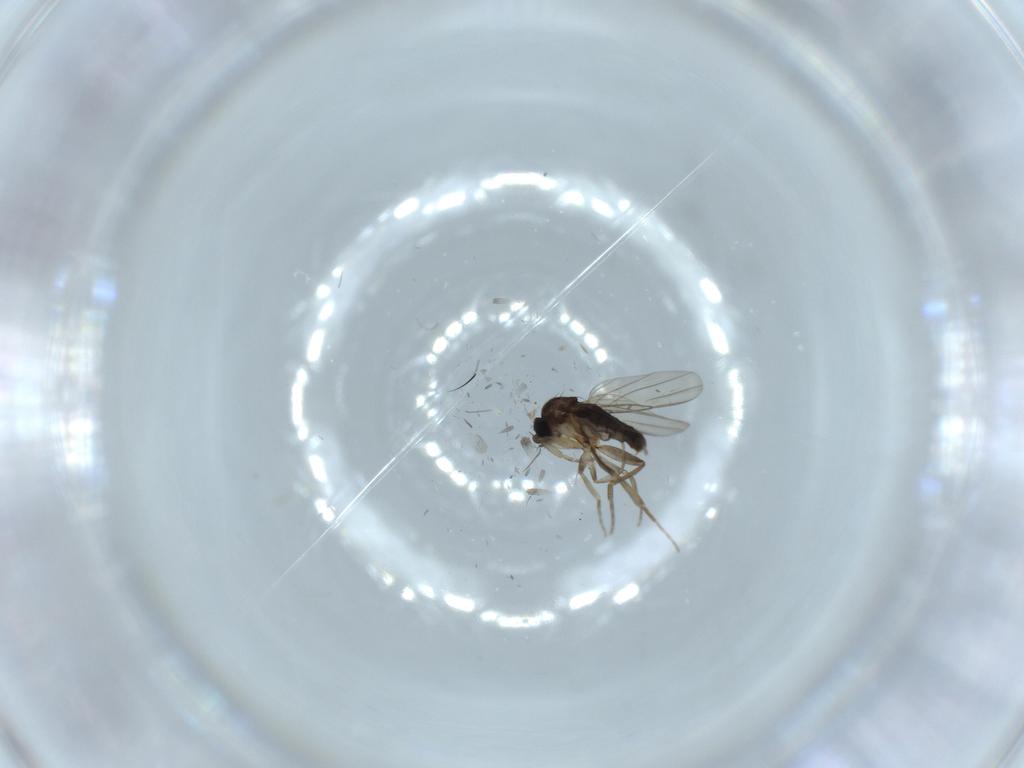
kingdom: Animalia
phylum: Arthropoda
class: Insecta
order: Diptera
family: Phoridae
